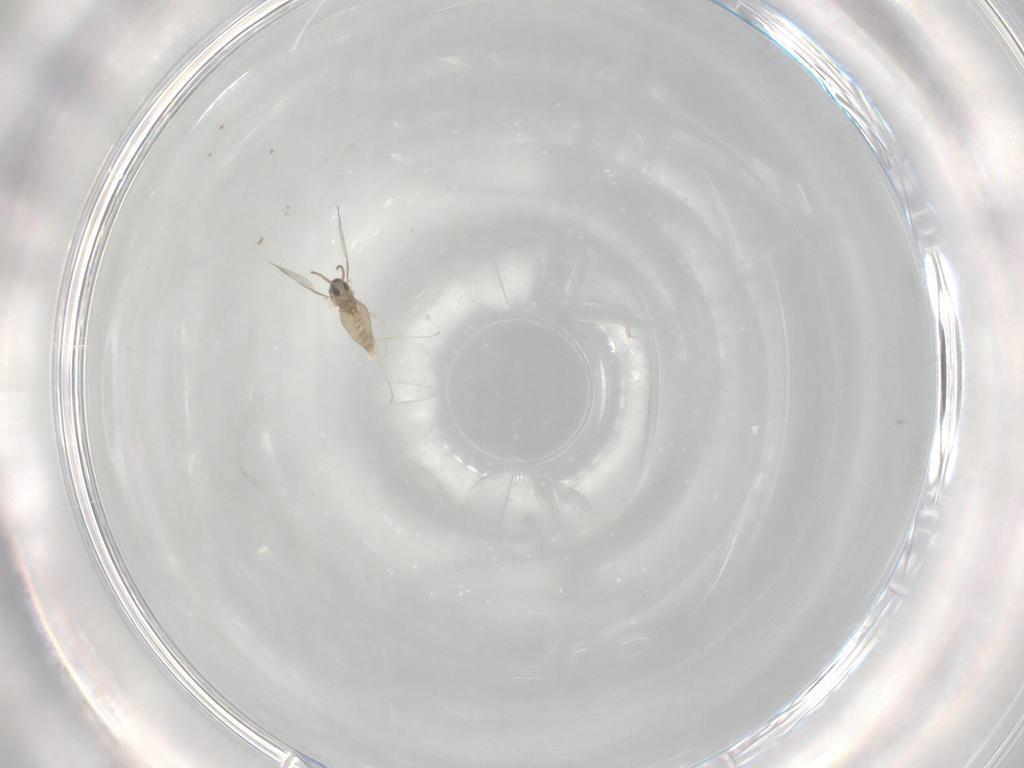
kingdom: Animalia
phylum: Arthropoda
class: Insecta
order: Diptera
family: Cecidomyiidae
